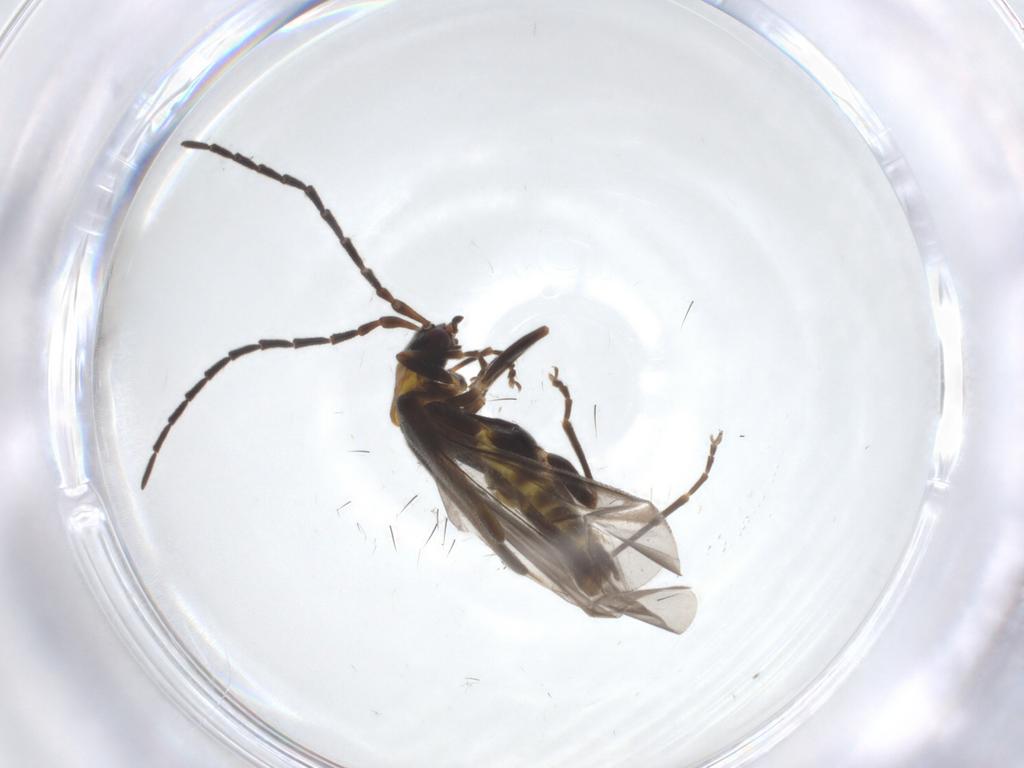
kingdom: Animalia
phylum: Arthropoda
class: Insecta
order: Coleoptera
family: Cantharidae
